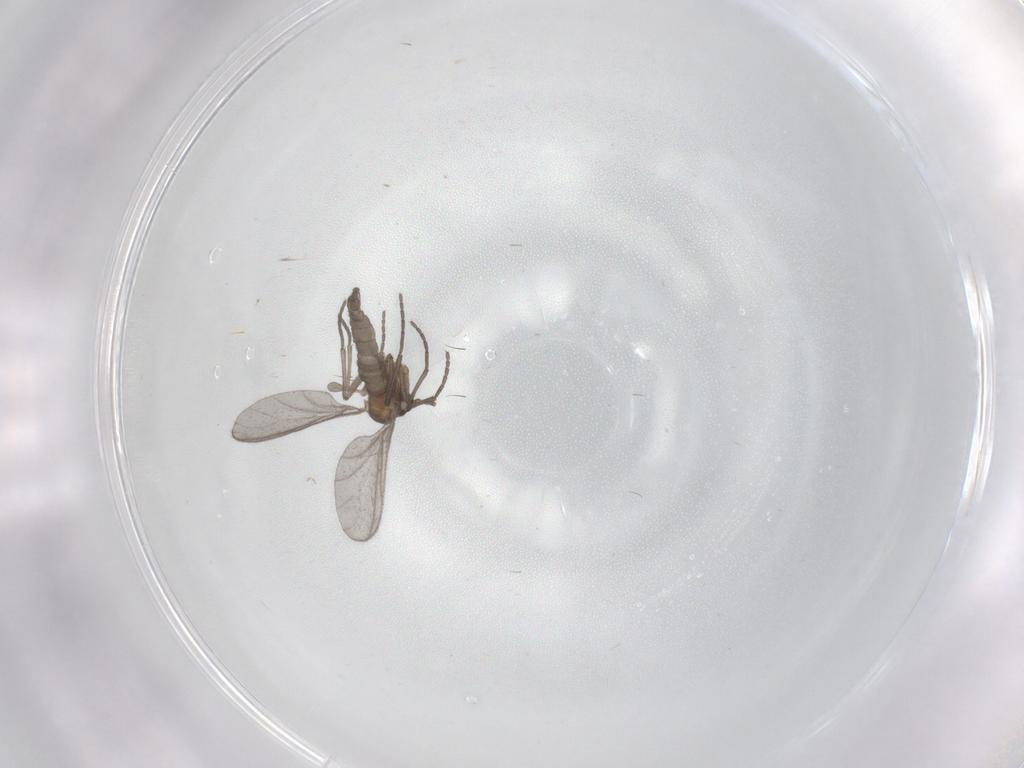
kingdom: Animalia
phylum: Arthropoda
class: Insecta
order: Diptera
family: Sciaridae
